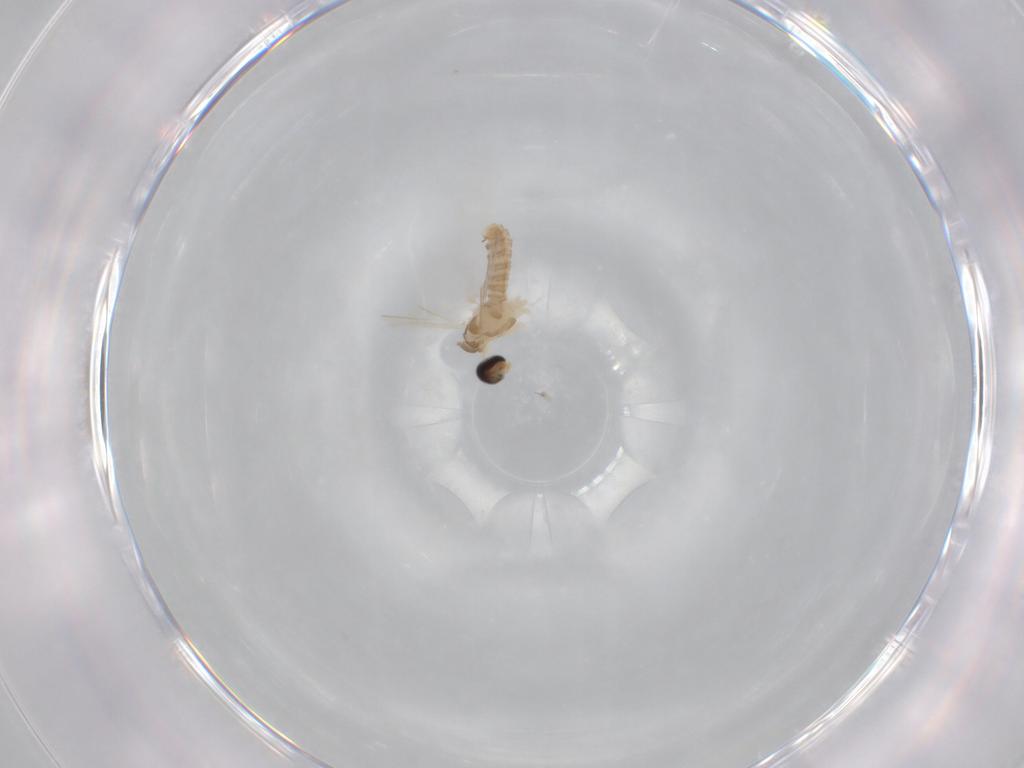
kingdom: Animalia
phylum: Arthropoda
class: Insecta
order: Diptera
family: Cecidomyiidae
